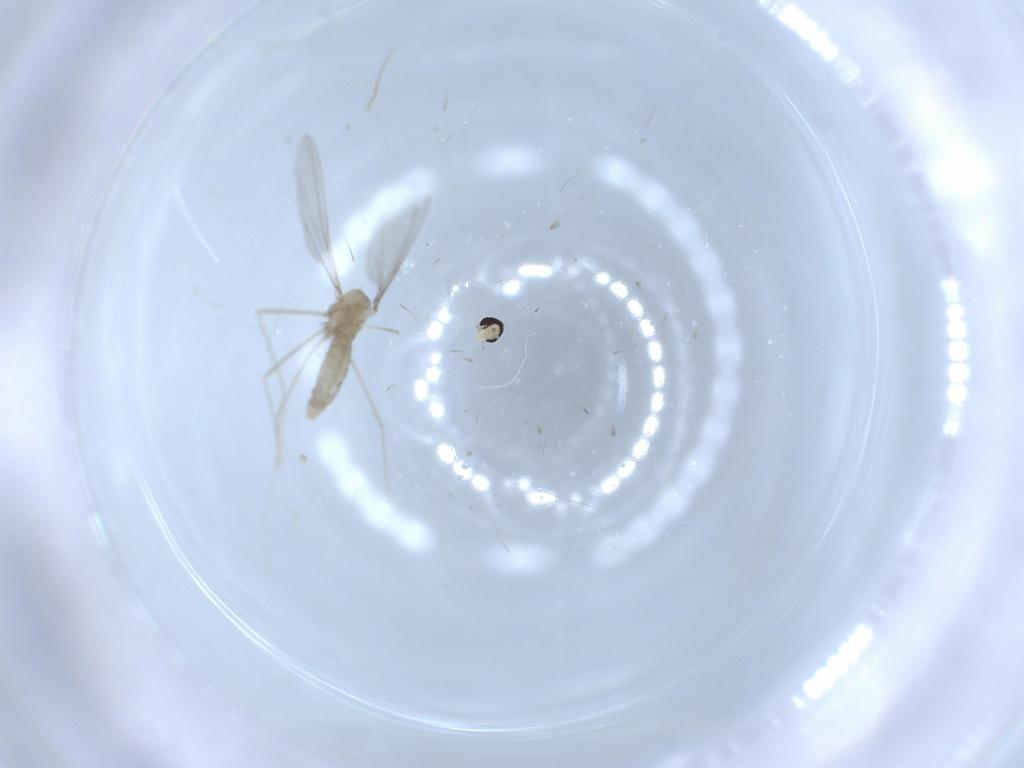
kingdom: Animalia
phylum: Arthropoda
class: Insecta
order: Diptera
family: Cecidomyiidae
